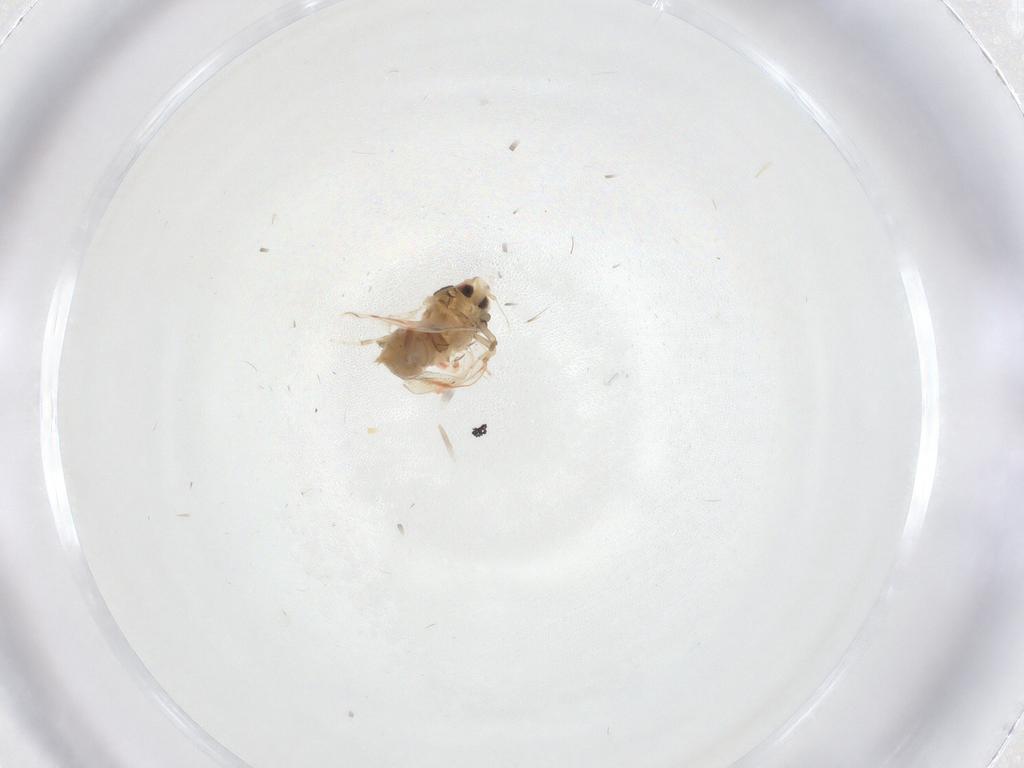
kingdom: Animalia
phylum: Arthropoda
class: Insecta
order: Hemiptera
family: Aleyrodidae
